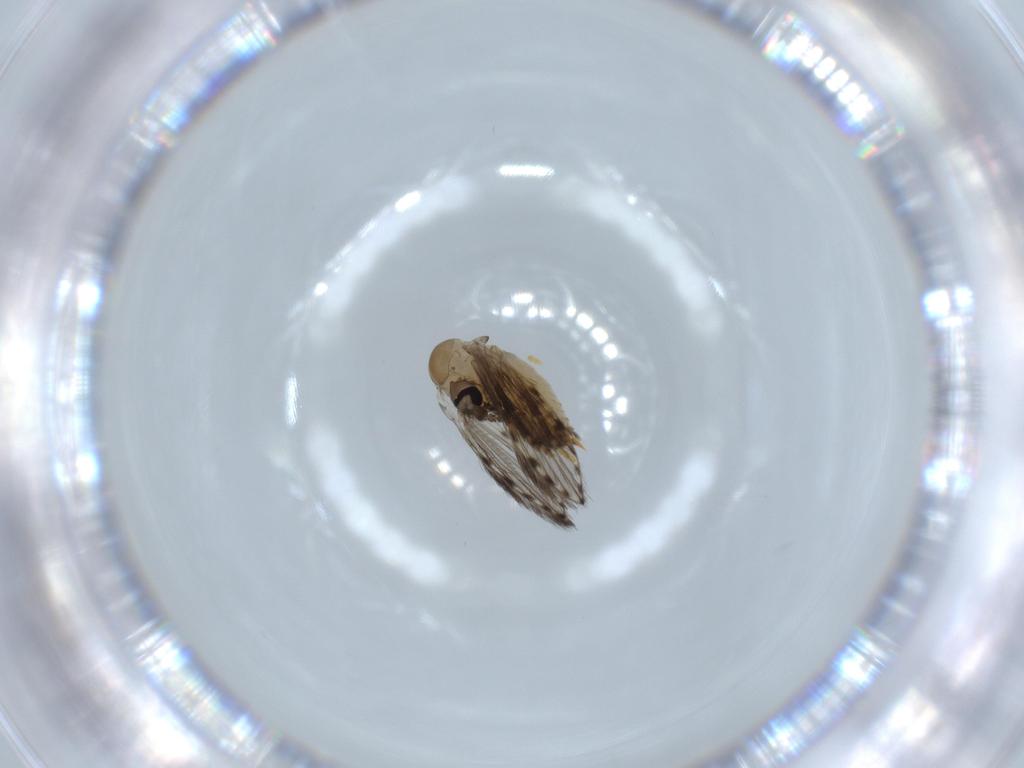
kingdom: Animalia
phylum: Arthropoda
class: Insecta
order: Diptera
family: Psychodidae
